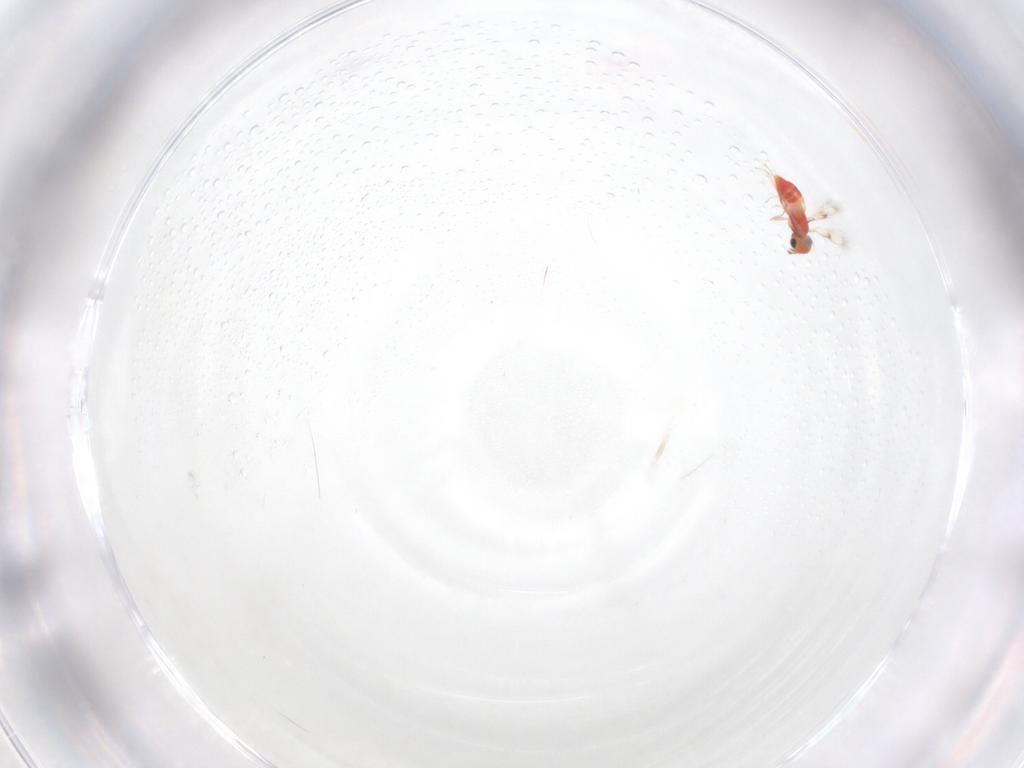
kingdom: Animalia
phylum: Arthropoda
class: Insecta
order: Hymenoptera
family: Trichogrammatidae
